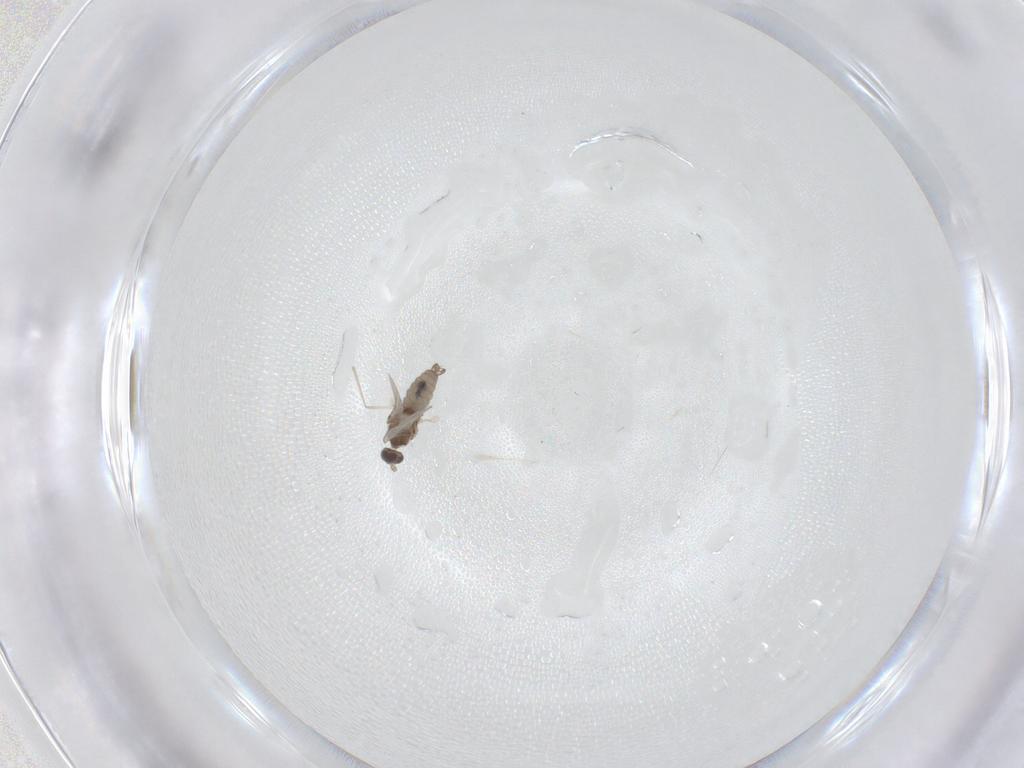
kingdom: Animalia
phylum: Arthropoda
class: Insecta
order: Diptera
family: Cecidomyiidae
